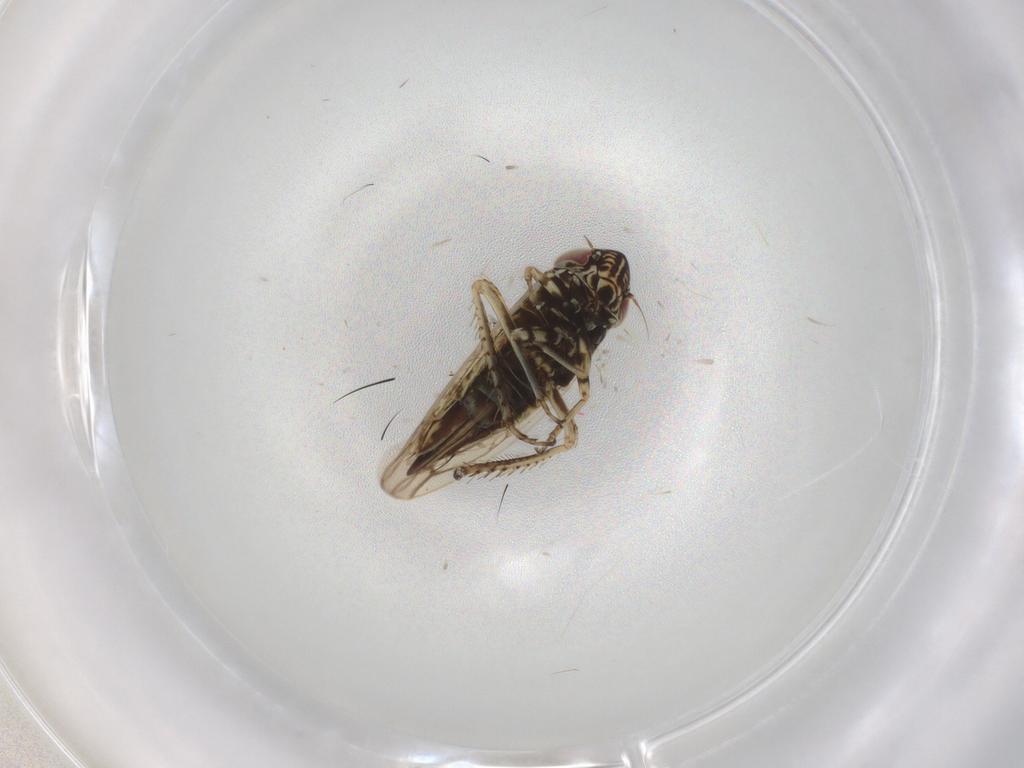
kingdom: Animalia
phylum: Arthropoda
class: Insecta
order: Hemiptera
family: Cicadellidae
